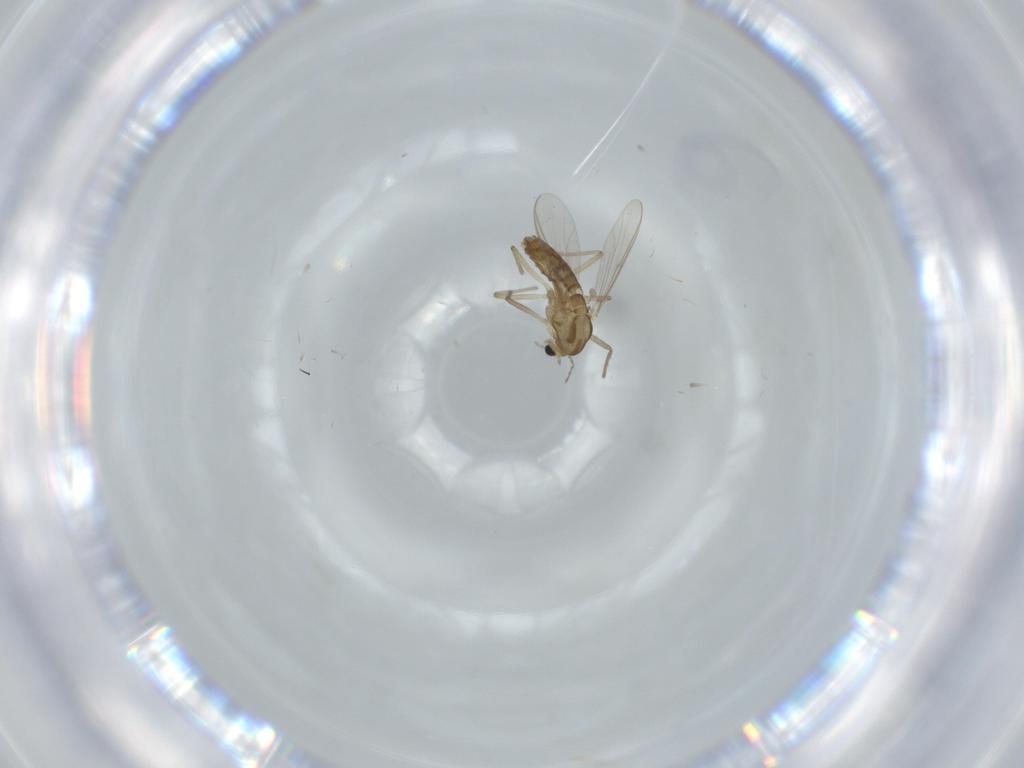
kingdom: Animalia
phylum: Arthropoda
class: Insecta
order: Diptera
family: Chironomidae
